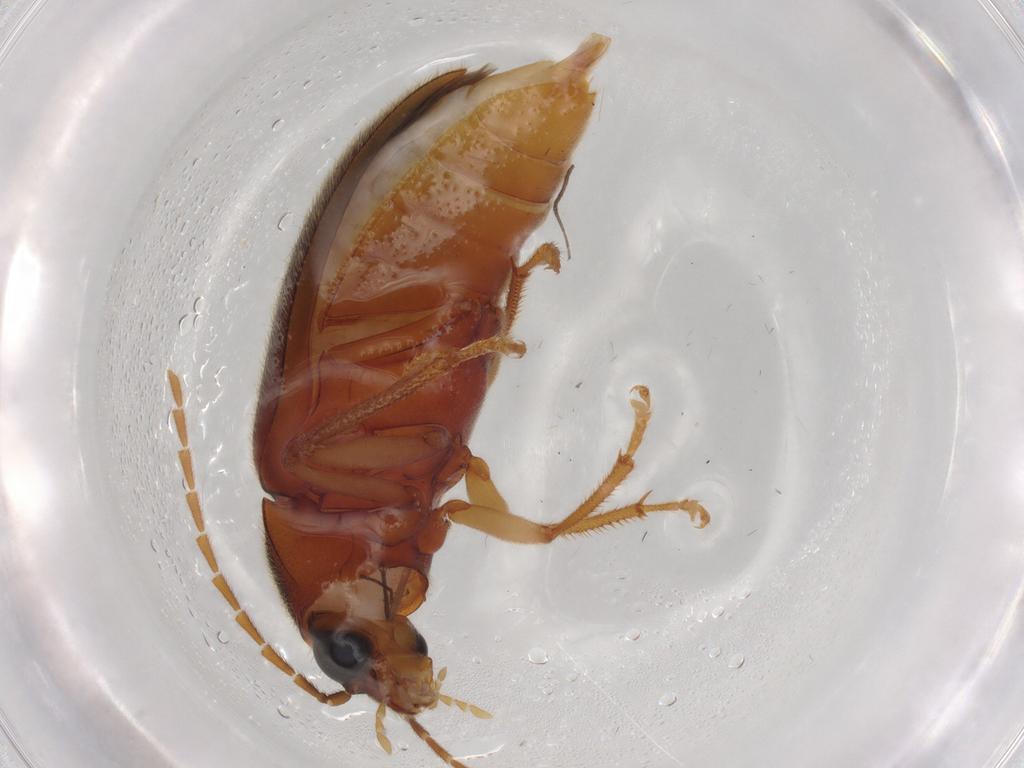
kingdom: Animalia
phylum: Arthropoda
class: Insecta
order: Coleoptera
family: Ptilodactylidae
